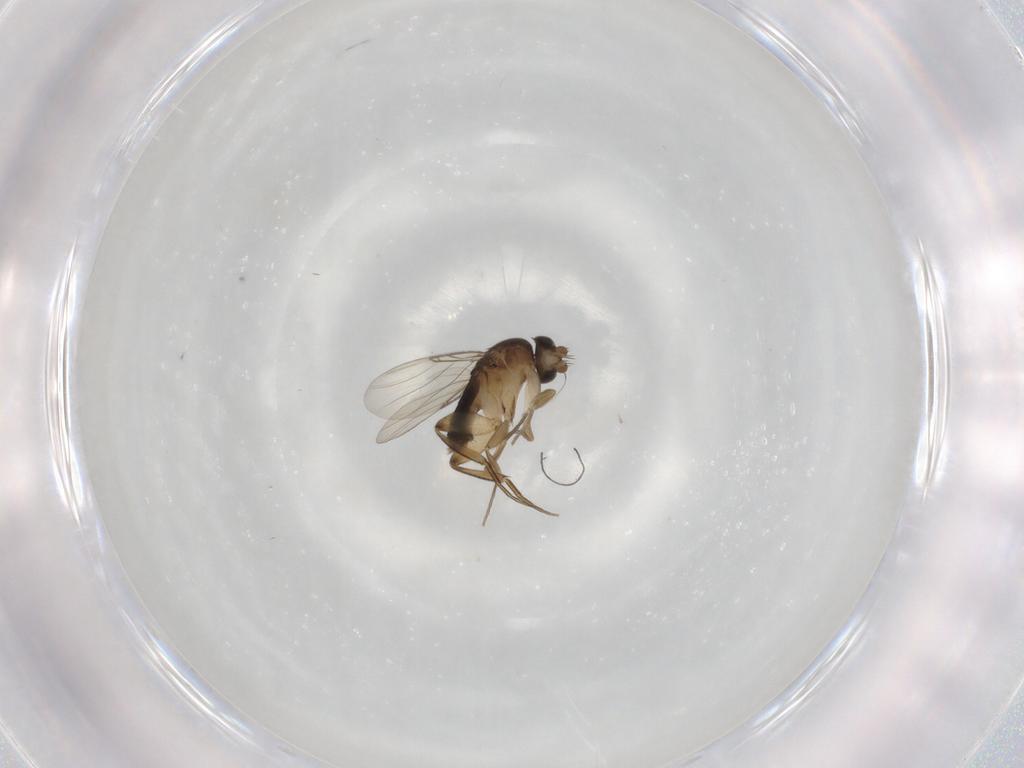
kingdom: Animalia
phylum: Arthropoda
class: Insecta
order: Diptera
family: Phoridae
